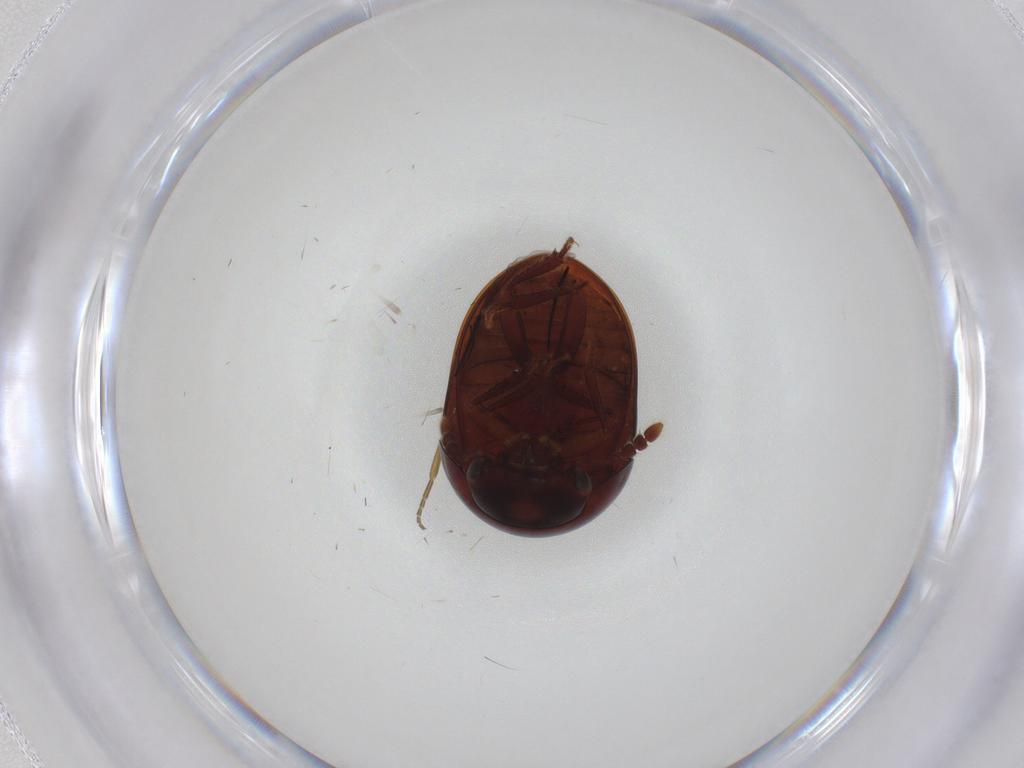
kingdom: Animalia
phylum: Arthropoda
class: Insecta
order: Coleoptera
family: Leiodidae
